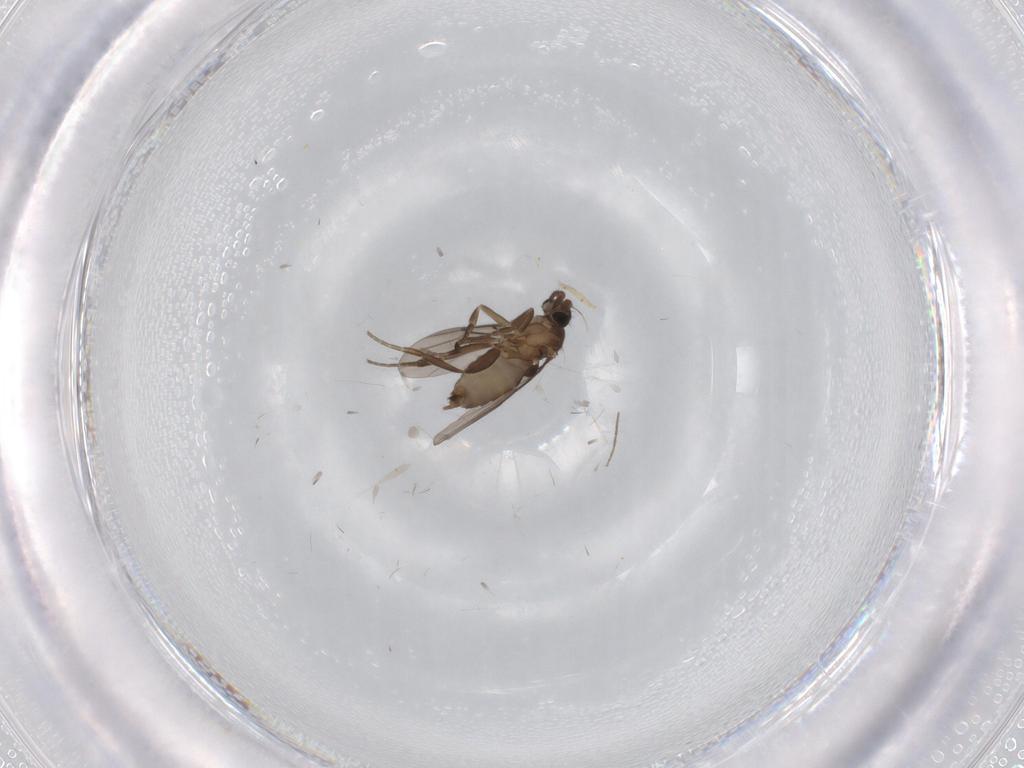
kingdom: Animalia
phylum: Arthropoda
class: Insecta
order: Diptera
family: Phoridae
